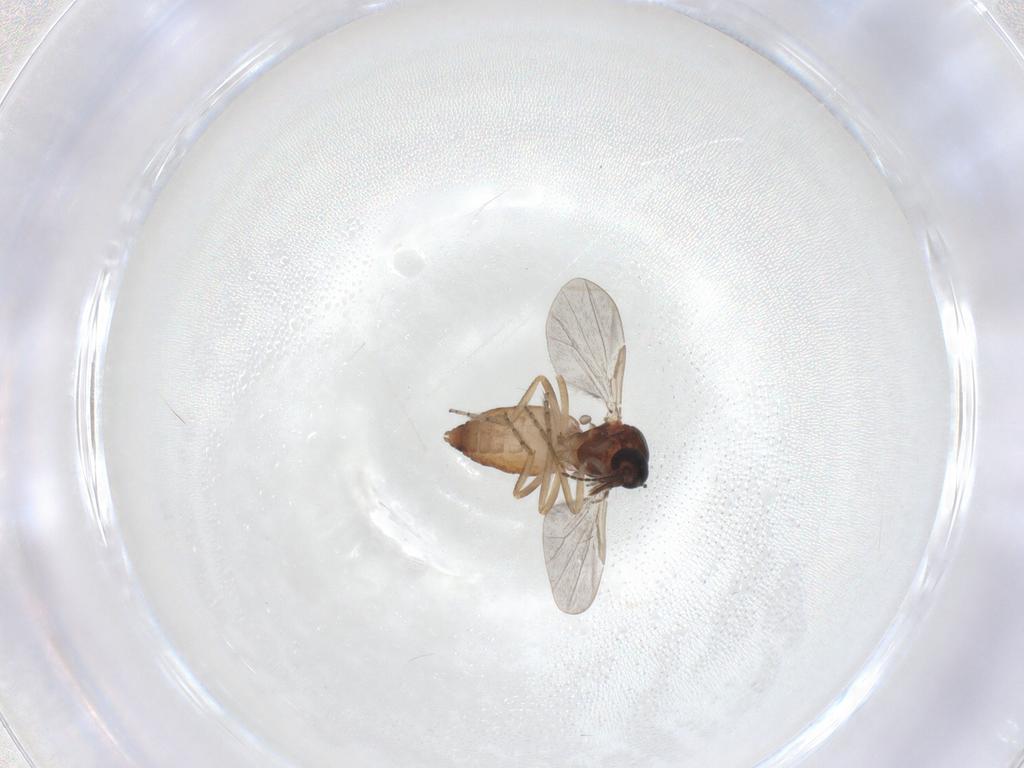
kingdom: Animalia
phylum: Arthropoda
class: Insecta
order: Diptera
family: Ceratopogonidae
